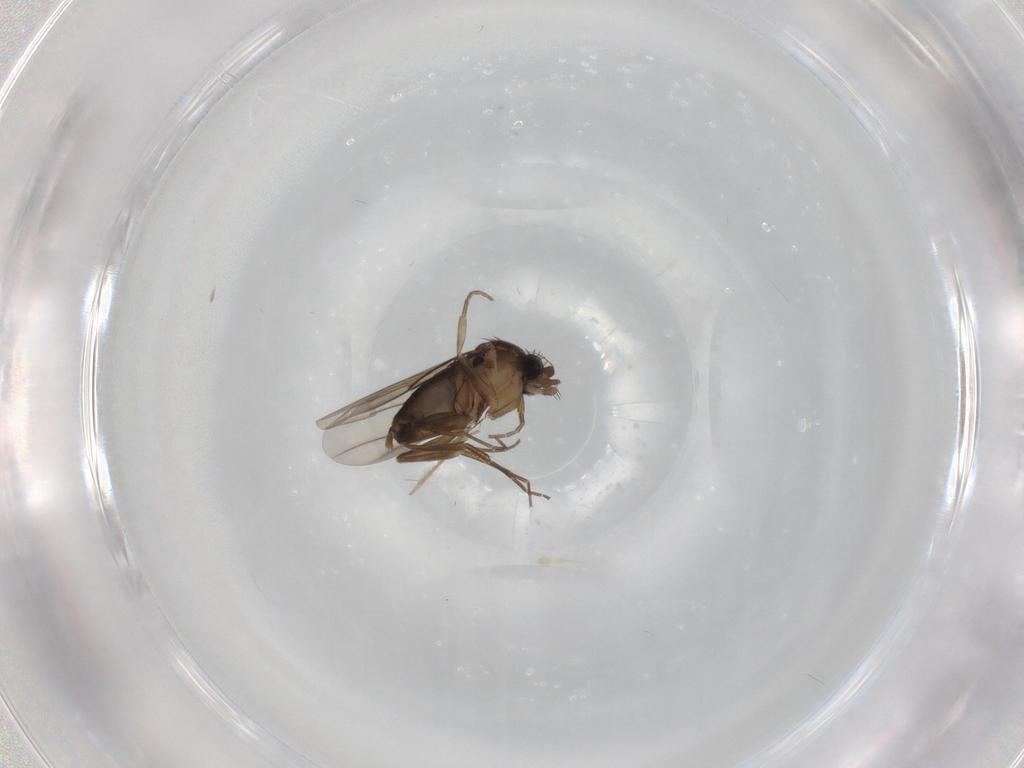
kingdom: Animalia
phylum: Arthropoda
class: Insecta
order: Diptera
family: Phoridae
